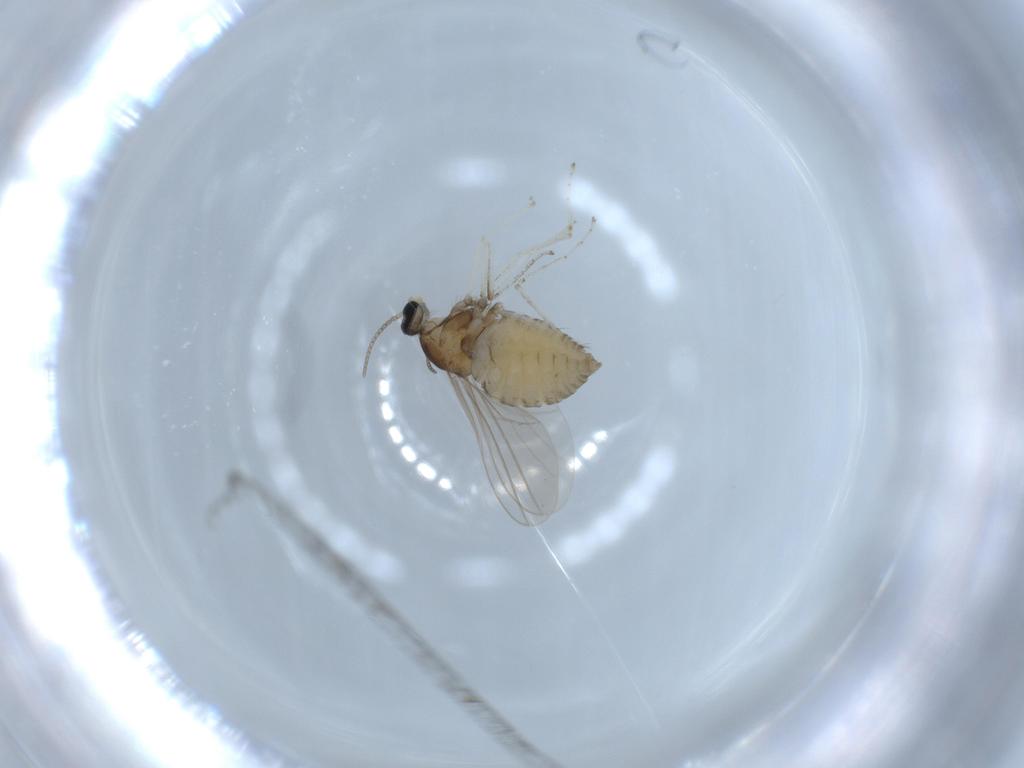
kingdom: Animalia
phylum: Arthropoda
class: Insecta
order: Diptera
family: Cecidomyiidae
